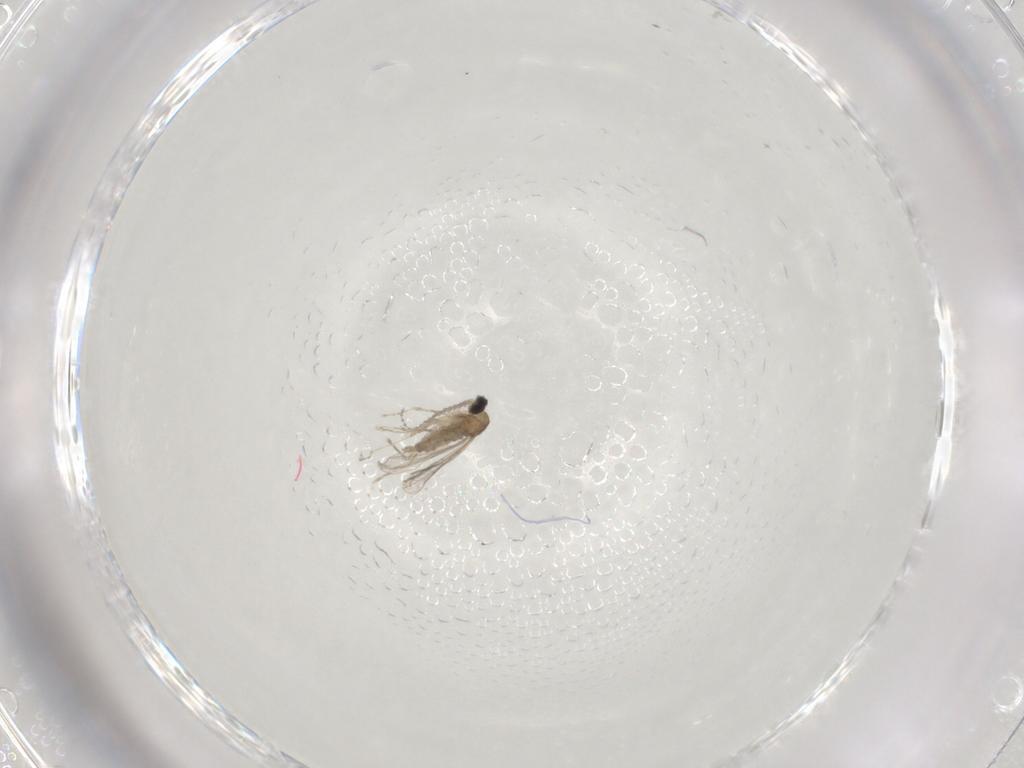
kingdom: Animalia
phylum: Arthropoda
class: Insecta
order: Diptera
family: Cecidomyiidae
